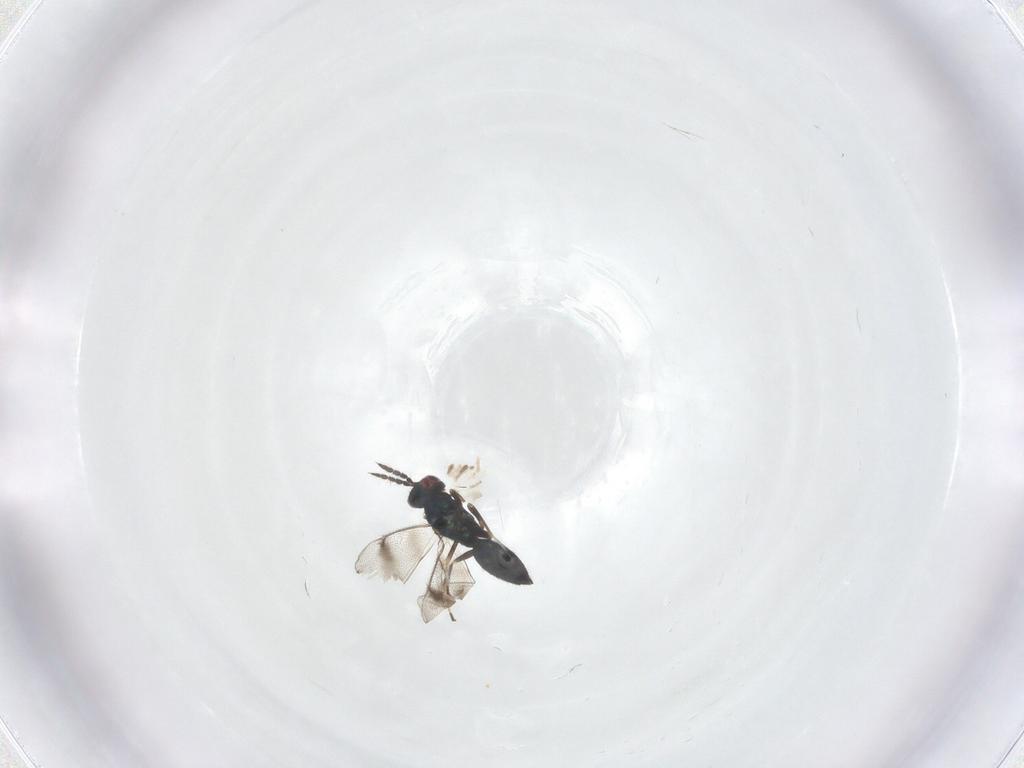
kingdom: Animalia
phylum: Arthropoda
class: Insecta
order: Hymenoptera
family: Eulophidae
